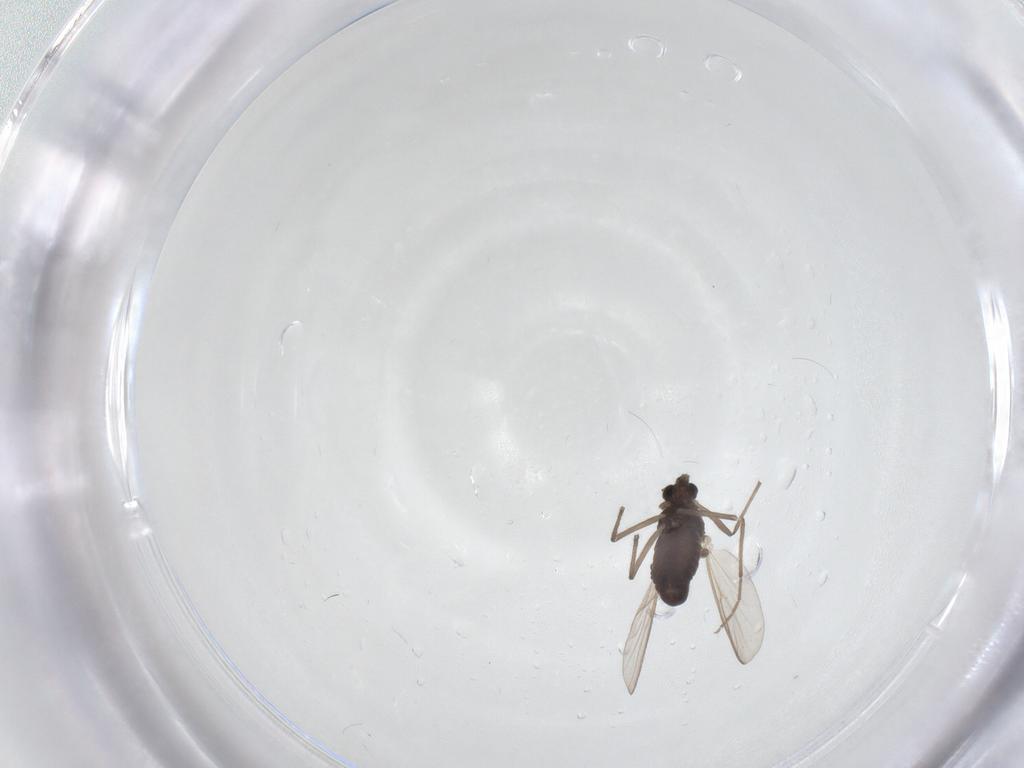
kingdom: Animalia
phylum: Arthropoda
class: Insecta
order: Diptera
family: Chironomidae
